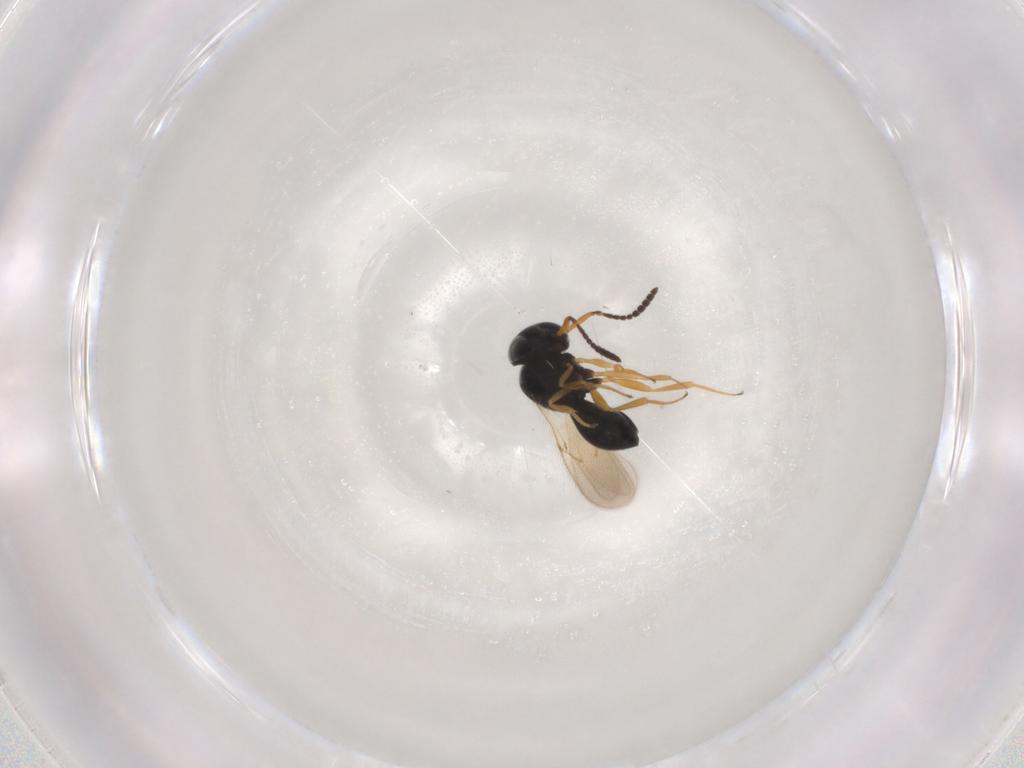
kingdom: Animalia
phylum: Arthropoda
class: Insecta
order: Hymenoptera
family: Scelionidae
